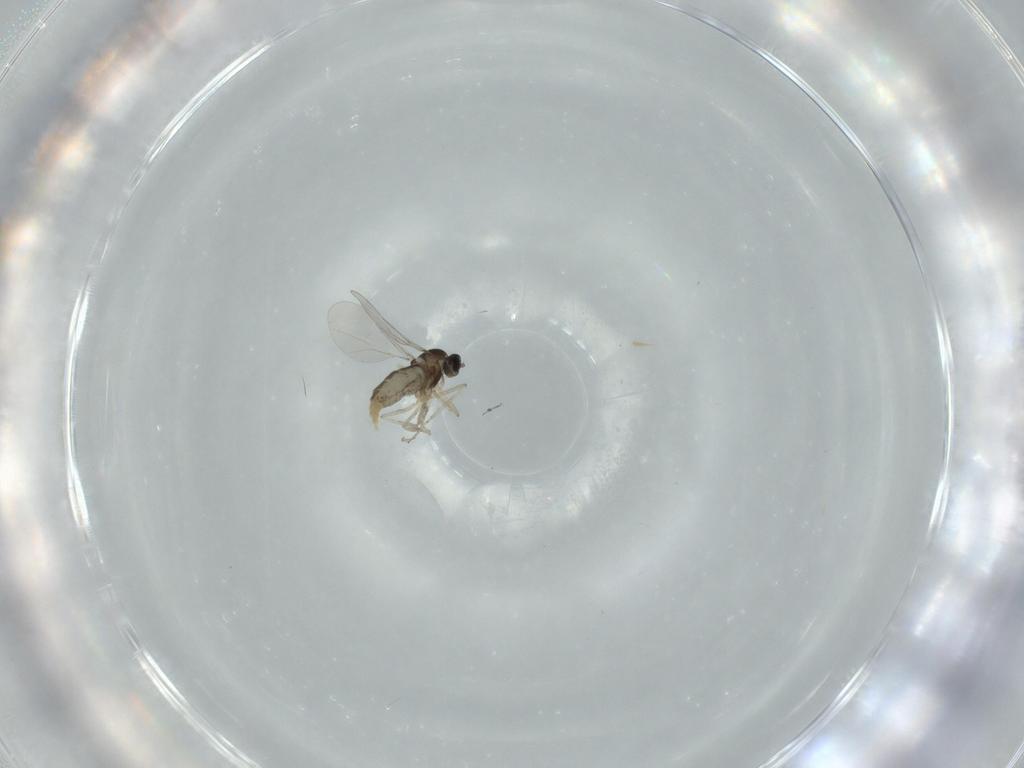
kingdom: Animalia
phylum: Arthropoda
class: Insecta
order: Diptera
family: Cecidomyiidae
